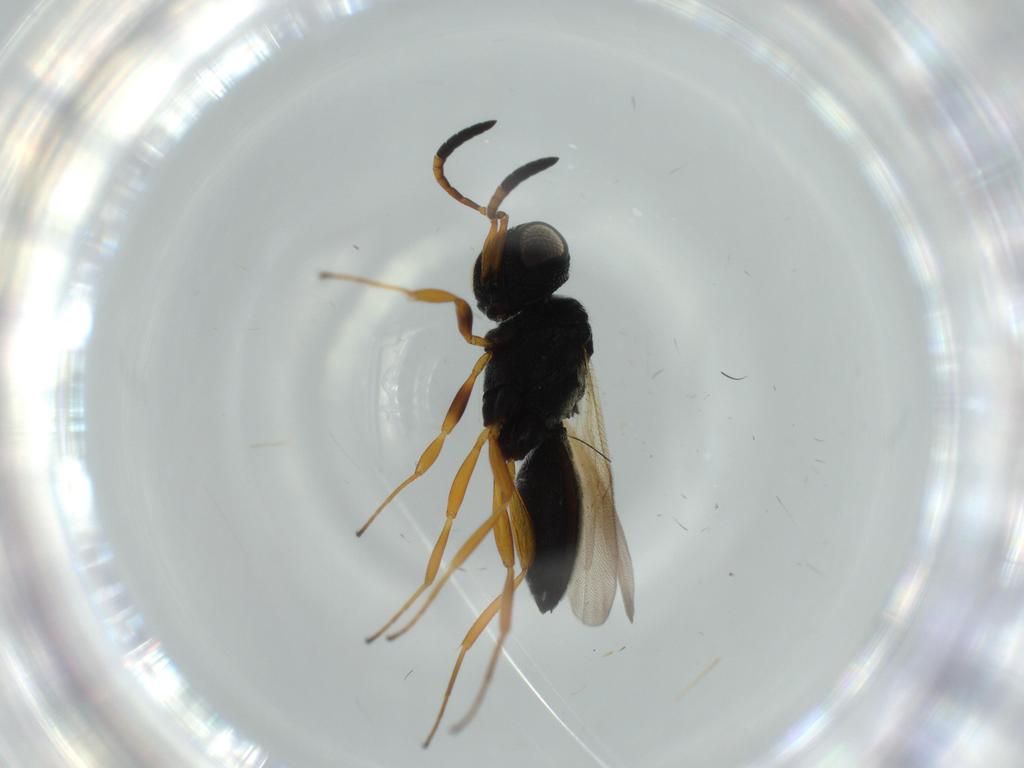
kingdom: Animalia
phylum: Arthropoda
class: Insecta
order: Hymenoptera
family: Scelionidae
